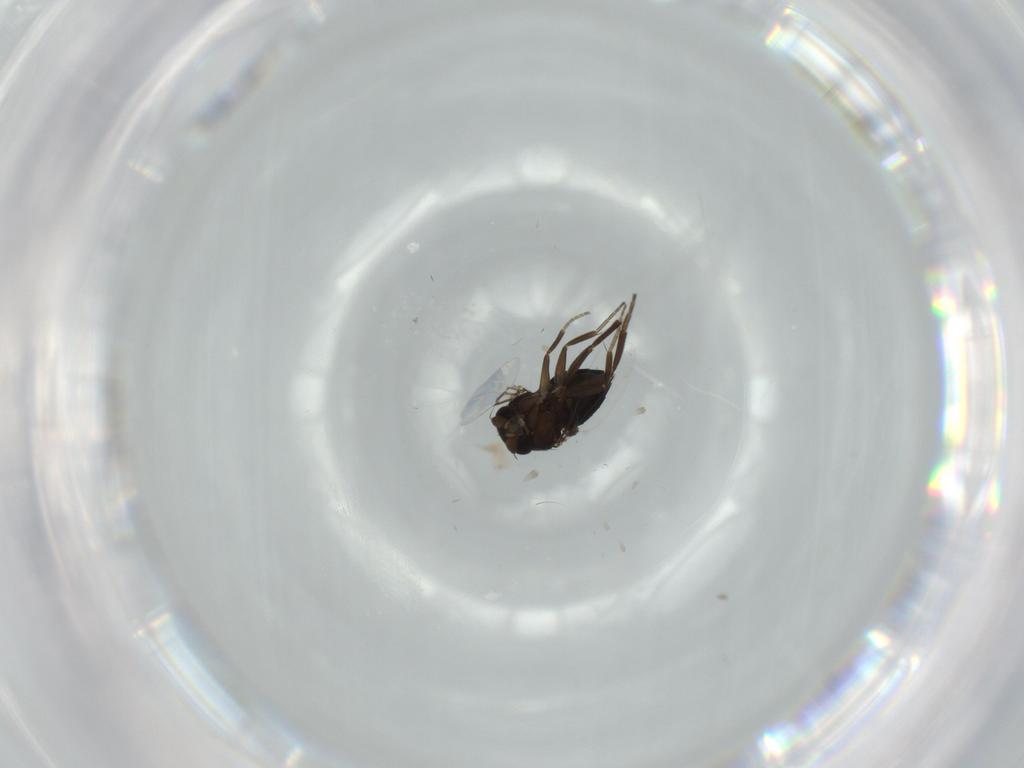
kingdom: Animalia
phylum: Arthropoda
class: Insecta
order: Diptera
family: Phoridae
